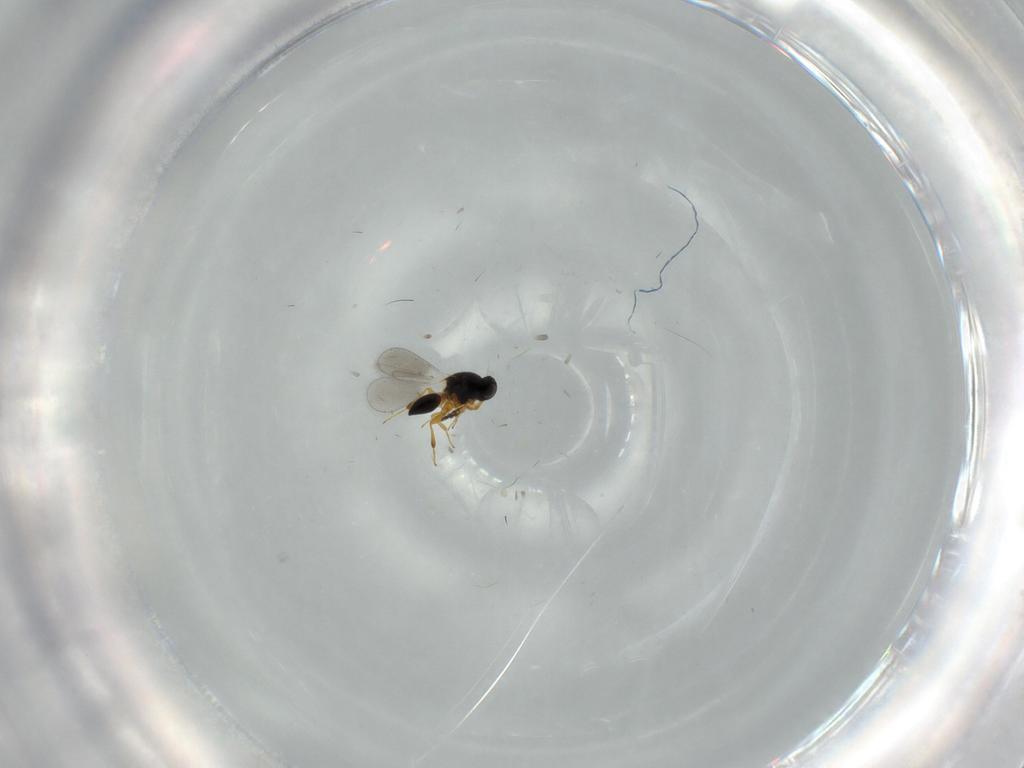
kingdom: Animalia
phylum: Arthropoda
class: Insecta
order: Hymenoptera
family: Platygastridae
